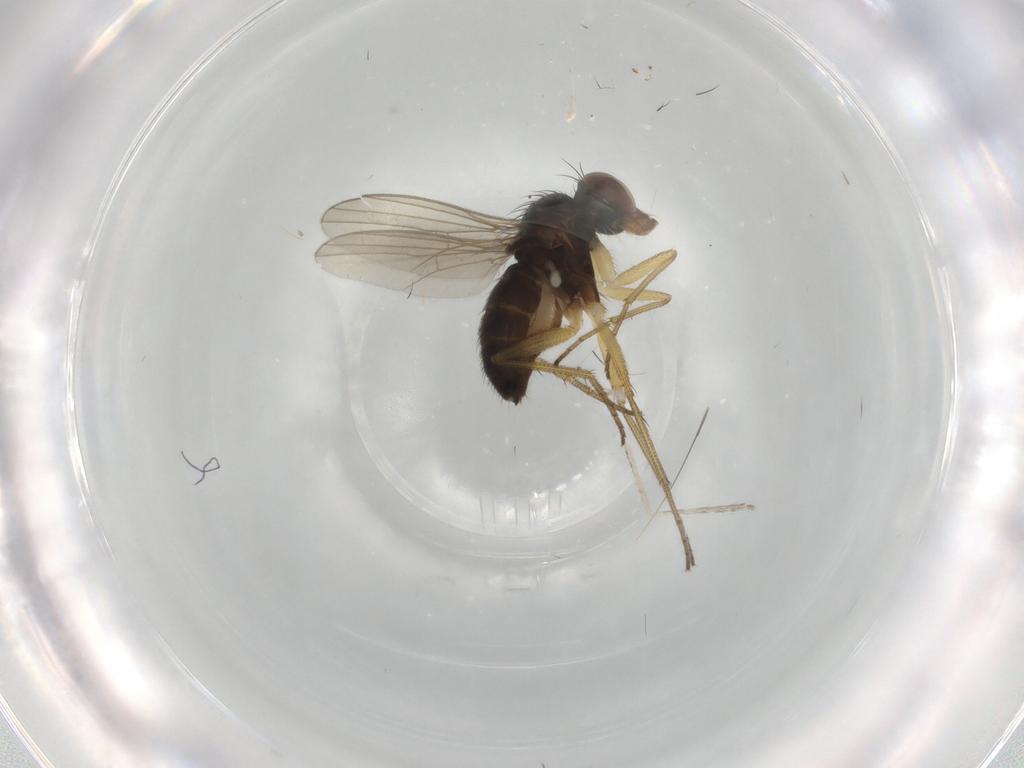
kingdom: Animalia
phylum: Arthropoda
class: Insecta
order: Diptera
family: Dolichopodidae
